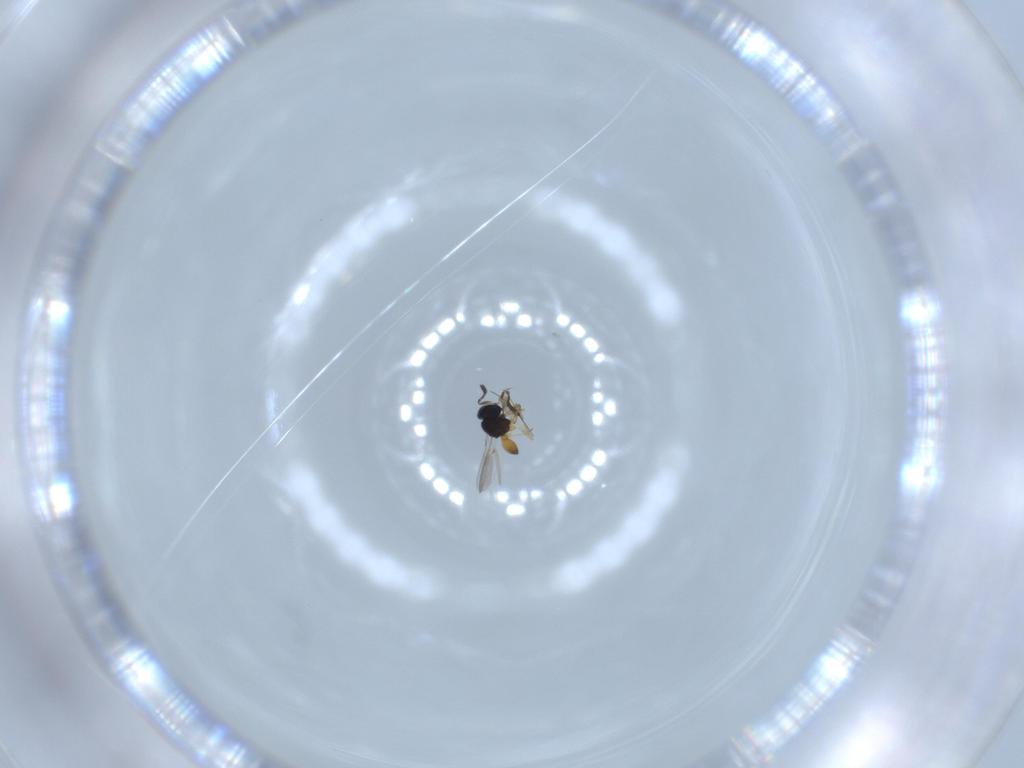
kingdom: Animalia
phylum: Arthropoda
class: Insecta
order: Hymenoptera
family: Scelionidae
